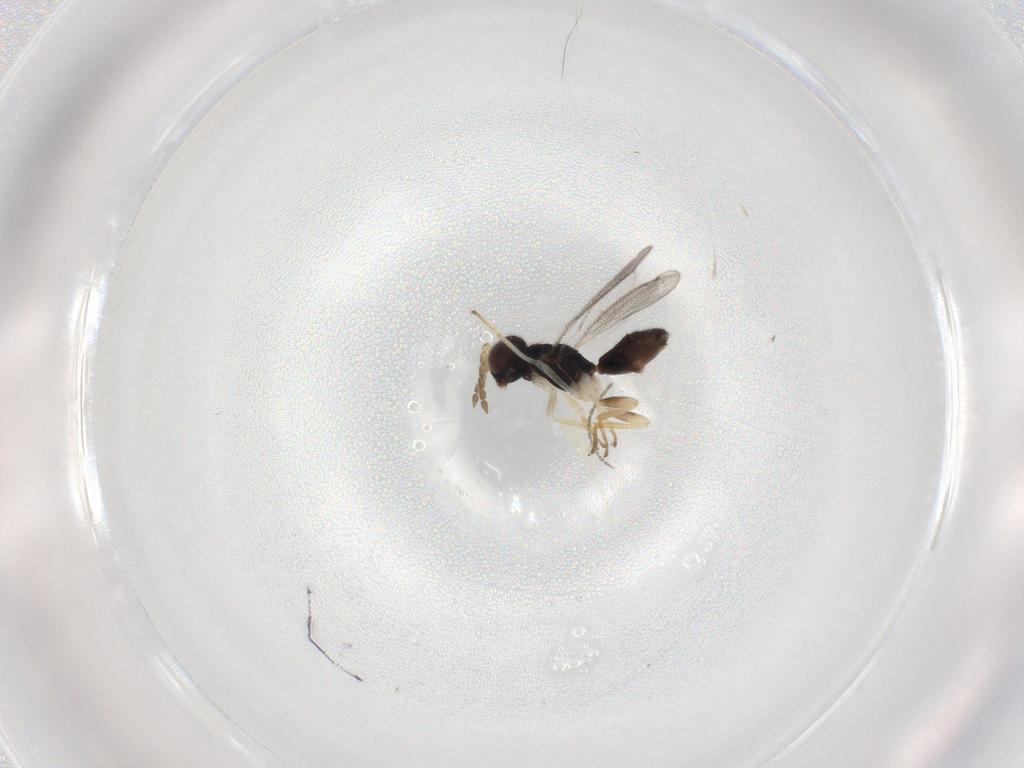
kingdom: Animalia
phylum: Arthropoda
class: Insecta
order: Hymenoptera
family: Eulophidae
